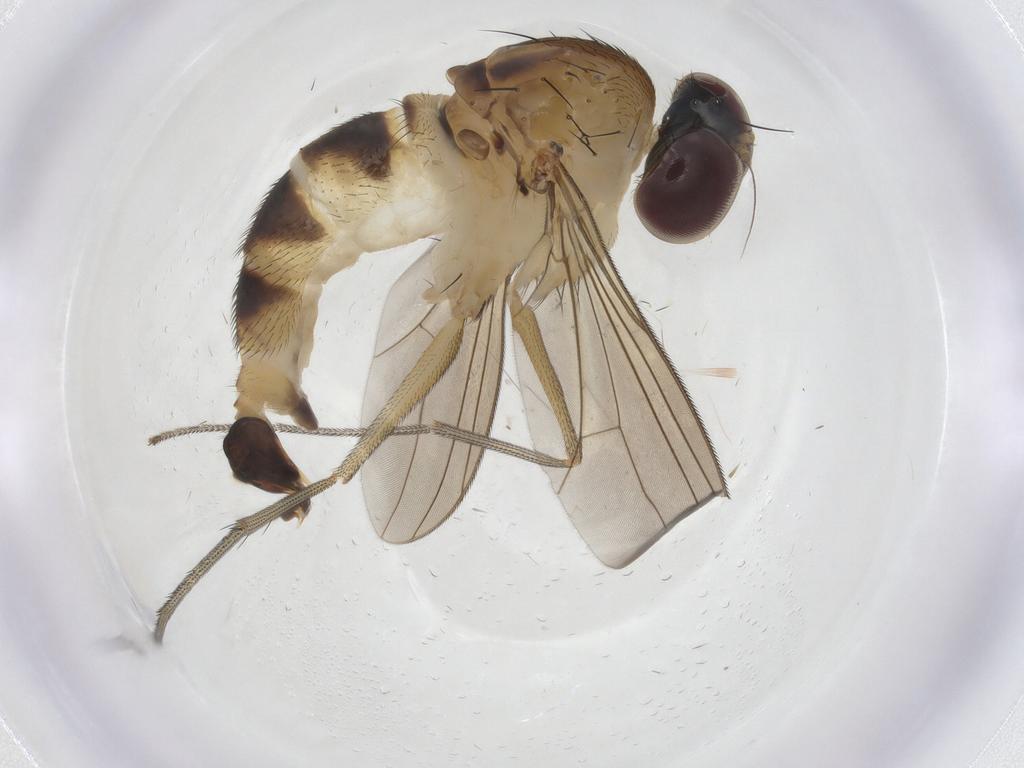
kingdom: Animalia
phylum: Arthropoda
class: Insecta
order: Diptera
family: Dolichopodidae
